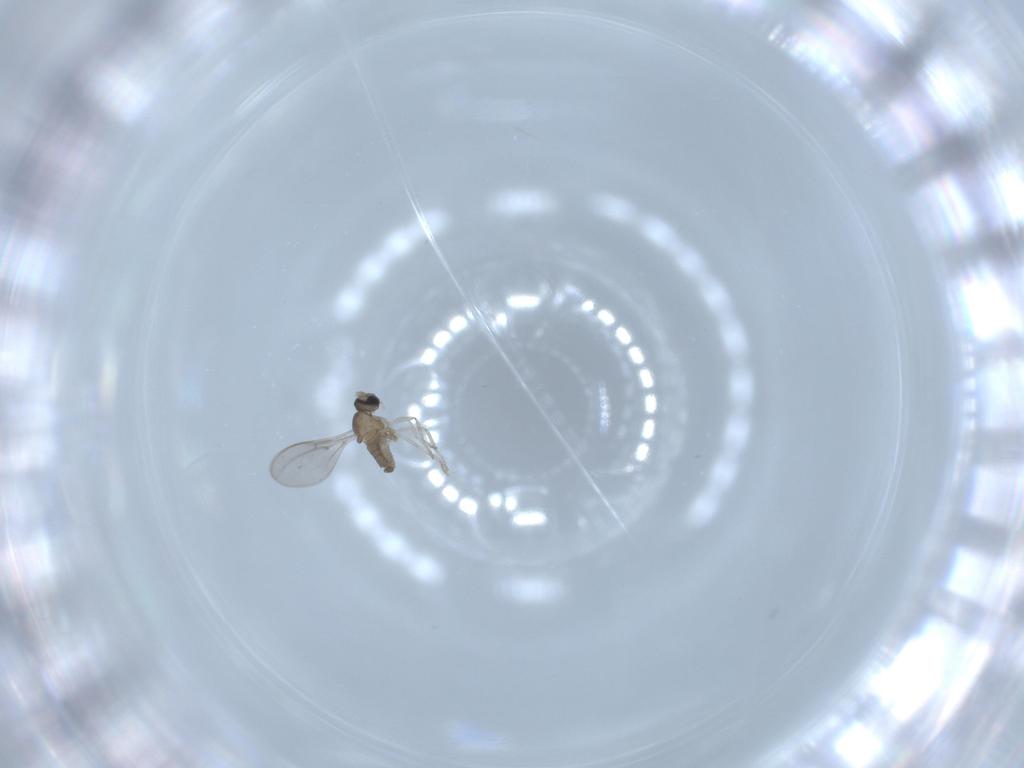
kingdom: Animalia
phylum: Arthropoda
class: Insecta
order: Diptera
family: Cecidomyiidae
